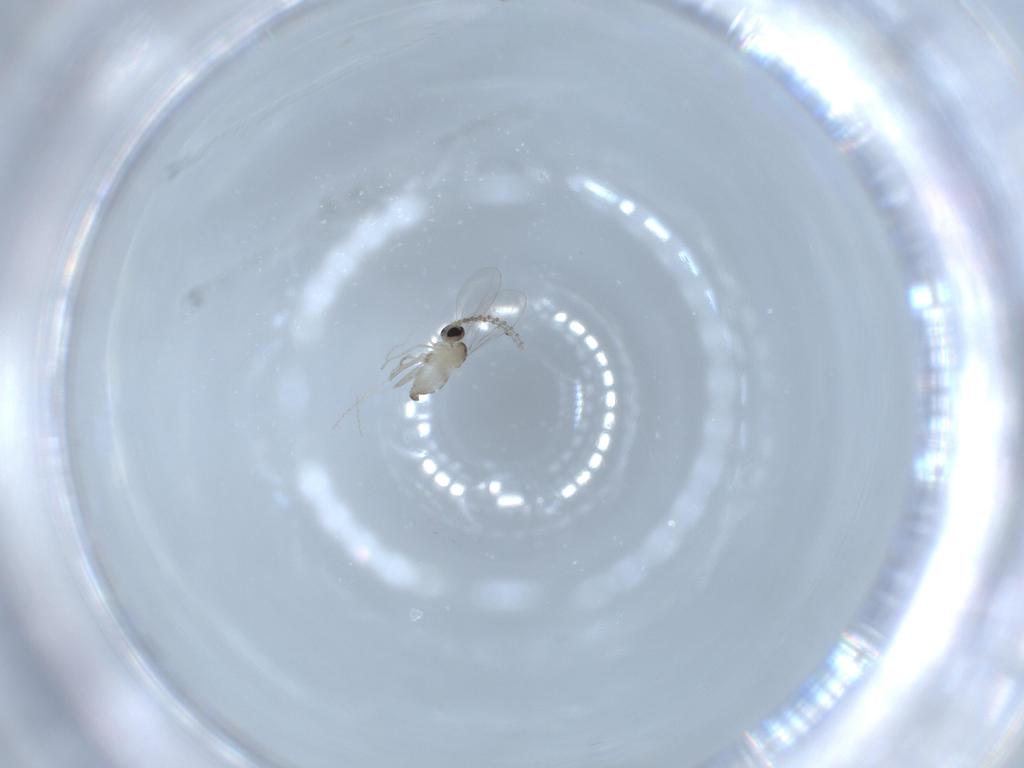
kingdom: Animalia
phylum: Arthropoda
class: Insecta
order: Diptera
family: Cecidomyiidae
